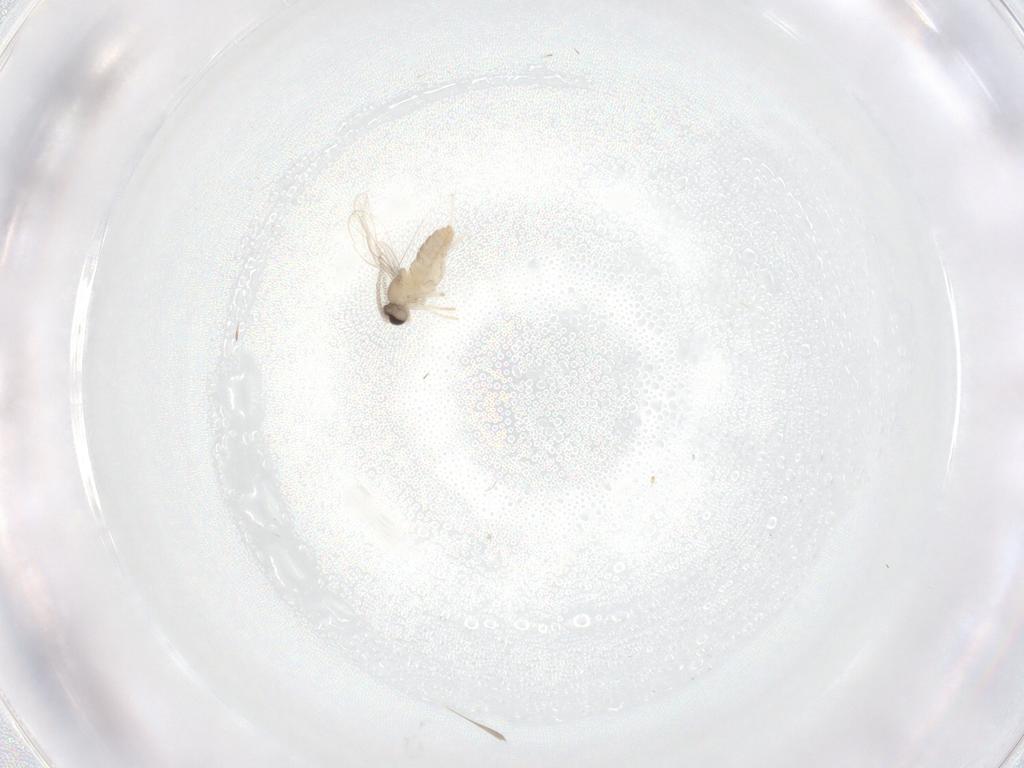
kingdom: Animalia
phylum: Arthropoda
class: Insecta
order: Diptera
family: Cecidomyiidae
